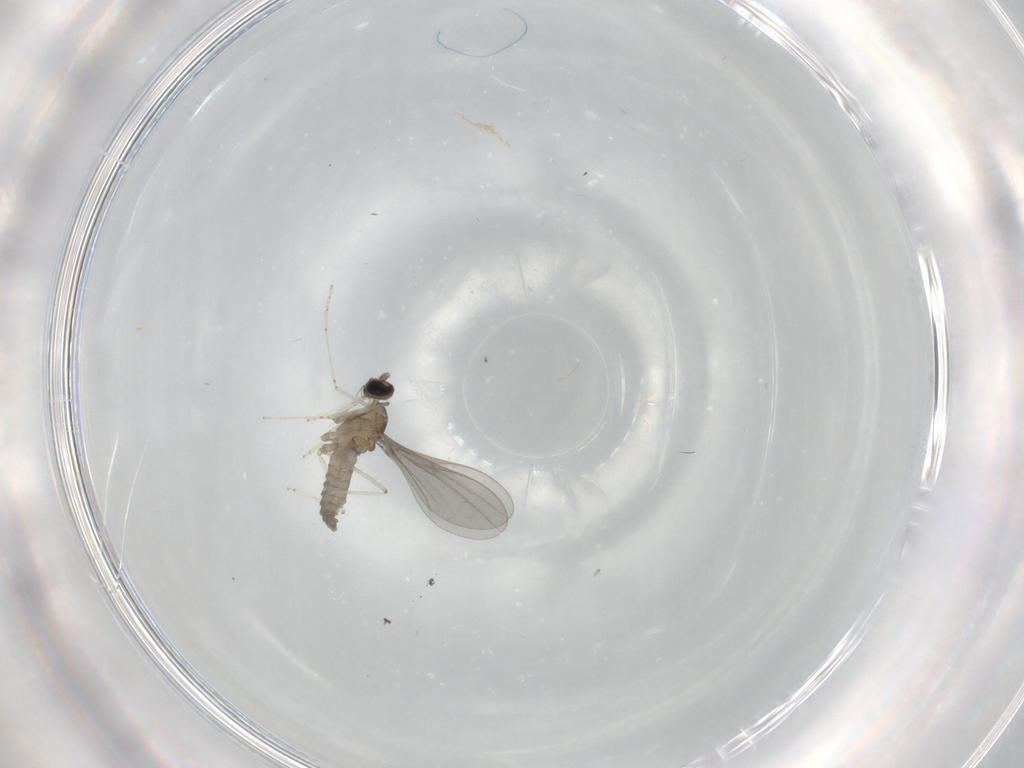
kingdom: Animalia
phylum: Arthropoda
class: Insecta
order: Diptera
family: Cecidomyiidae
